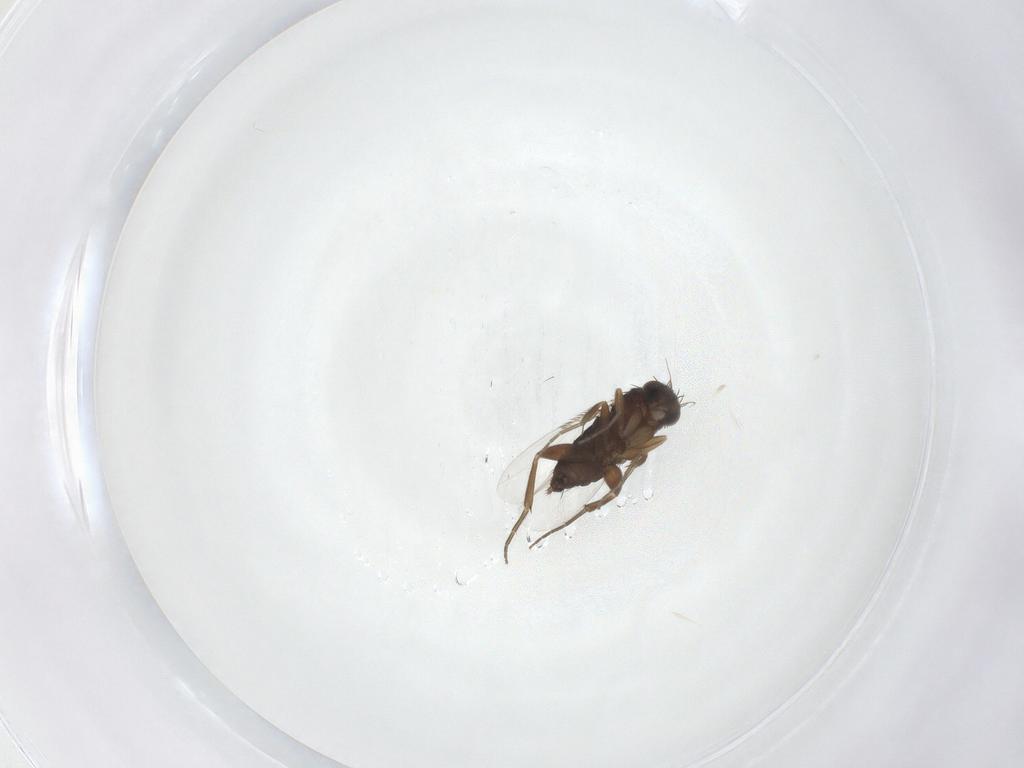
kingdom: Animalia
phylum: Arthropoda
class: Insecta
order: Diptera
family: Phoridae
